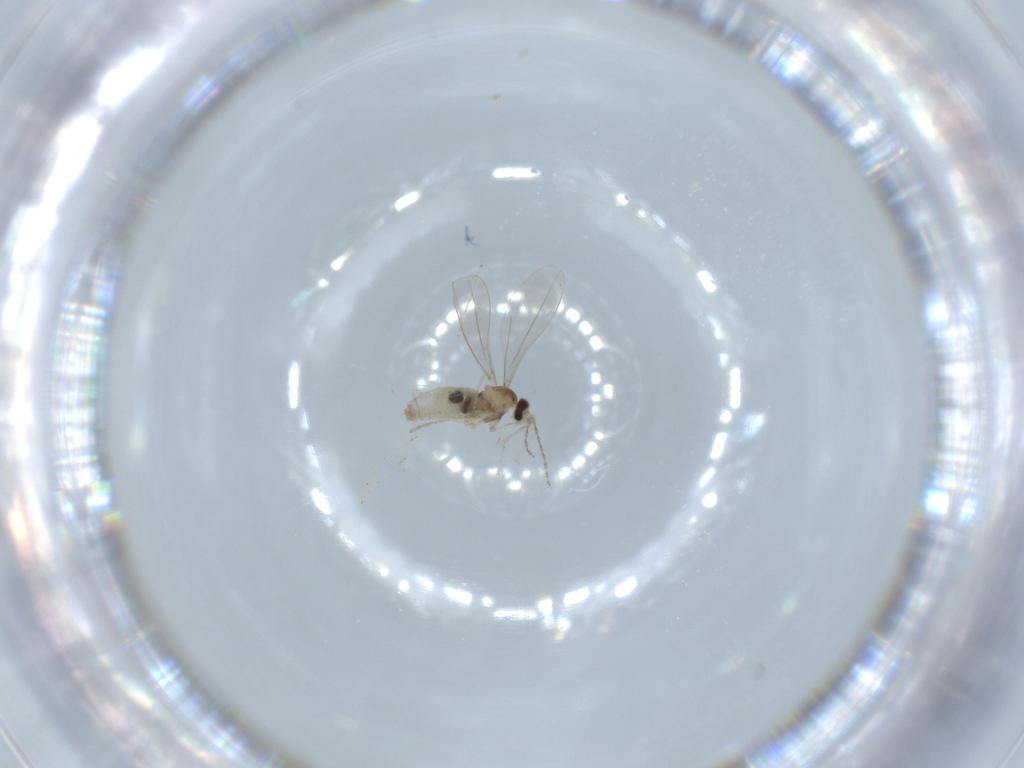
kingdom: Animalia
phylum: Arthropoda
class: Insecta
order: Diptera
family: Cecidomyiidae
